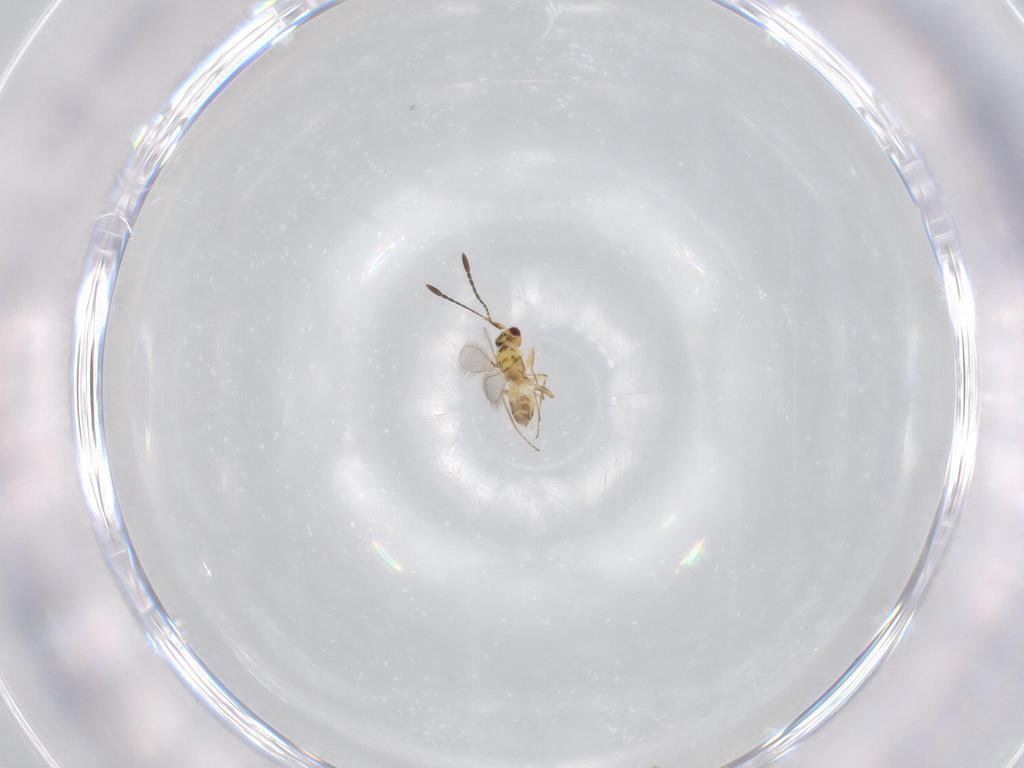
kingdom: Animalia
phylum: Arthropoda
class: Insecta
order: Hymenoptera
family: Mymaridae
